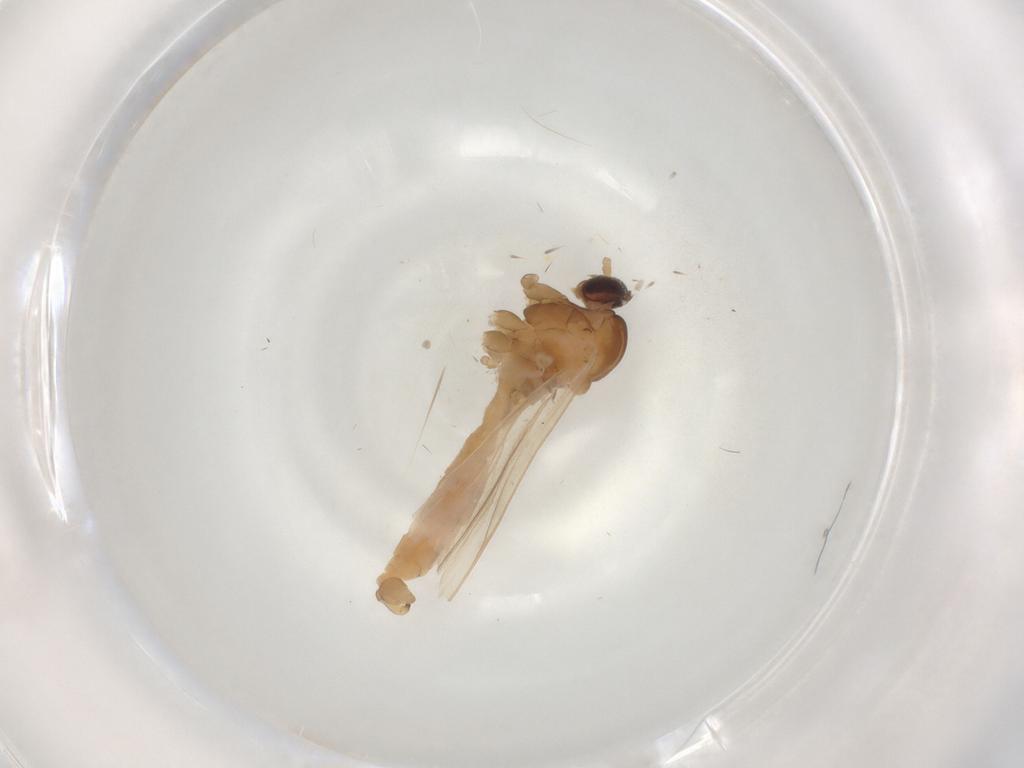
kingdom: Animalia
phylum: Arthropoda
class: Insecta
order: Diptera
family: Cecidomyiidae
